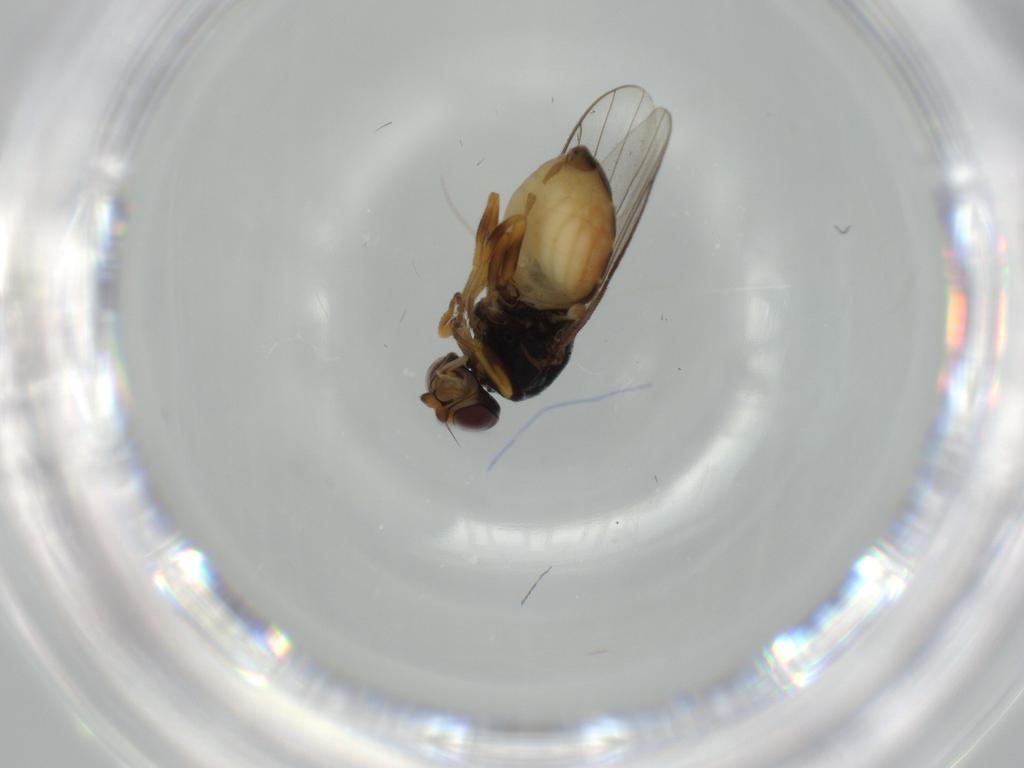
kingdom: Animalia
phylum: Arthropoda
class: Insecta
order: Diptera
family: Chloropidae
